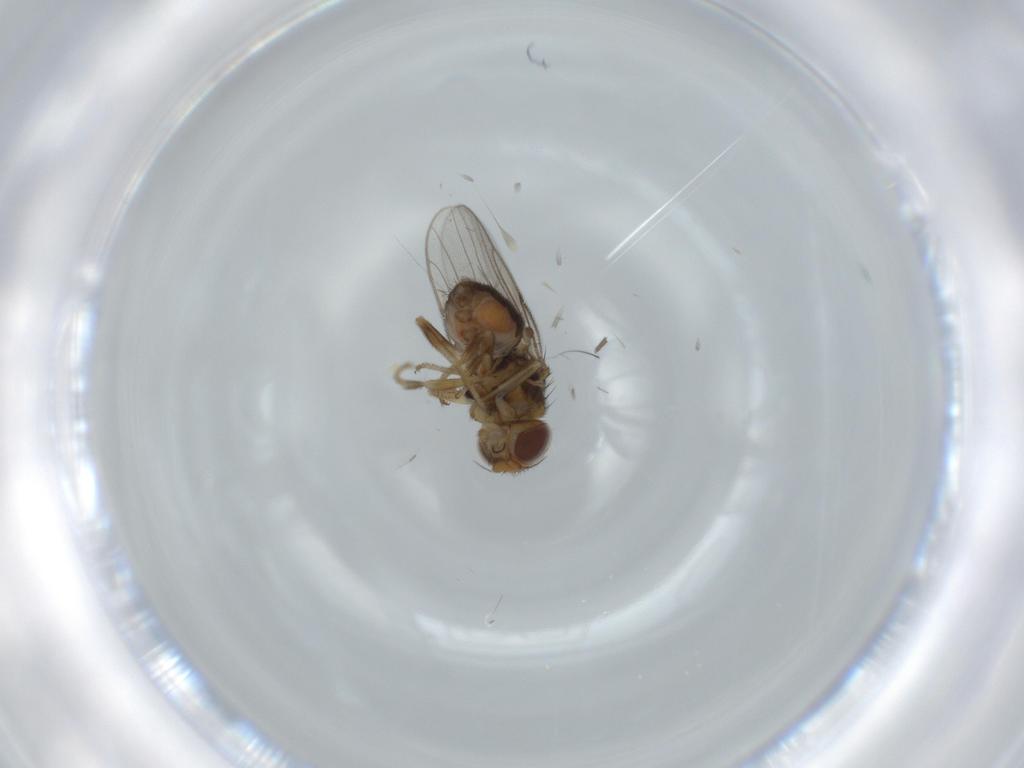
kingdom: Animalia
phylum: Arthropoda
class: Insecta
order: Diptera
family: Chloropidae
